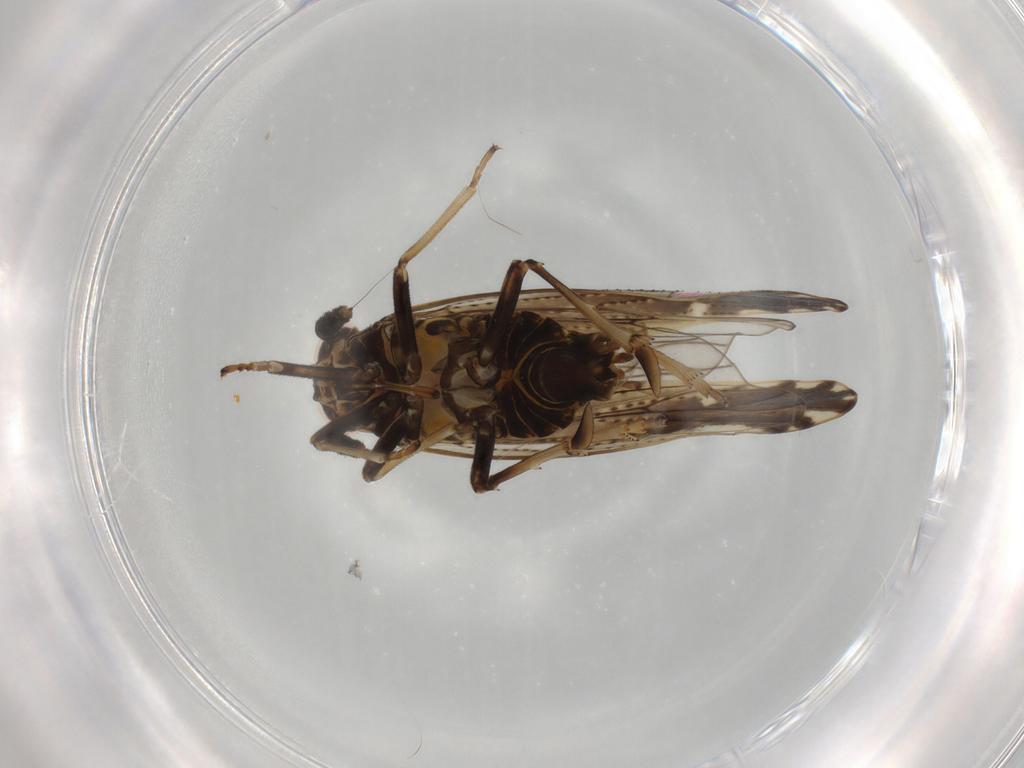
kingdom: Animalia
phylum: Arthropoda
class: Insecta
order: Hemiptera
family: Delphacidae
